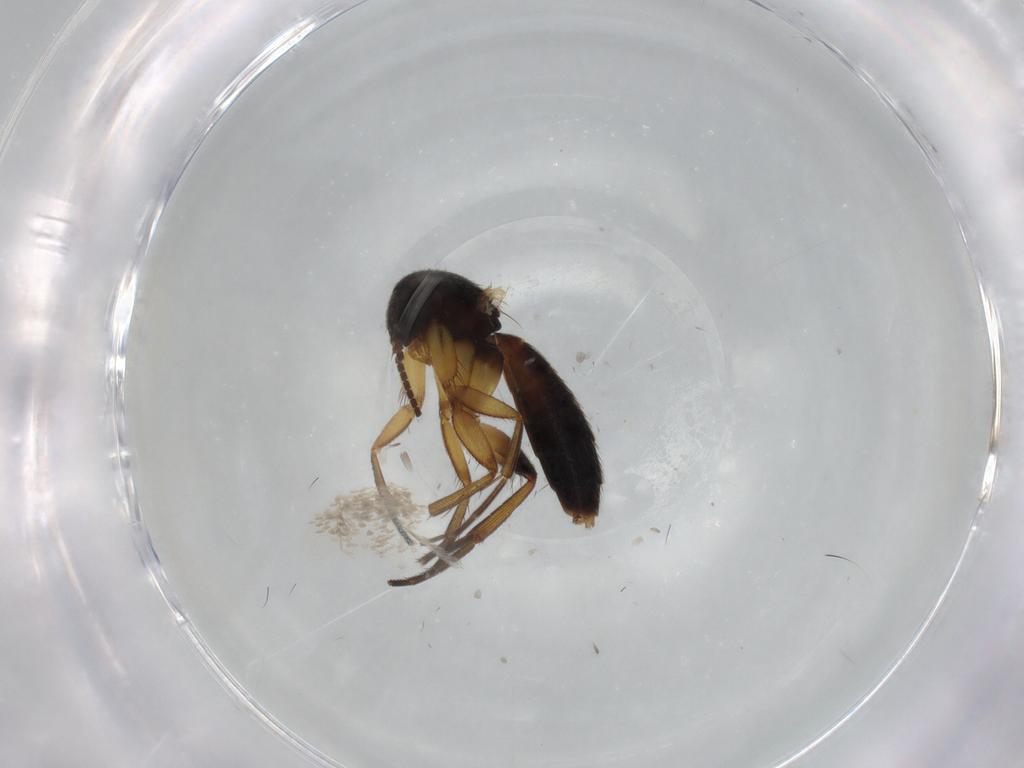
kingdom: Animalia
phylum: Arthropoda
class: Insecta
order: Diptera
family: Mycetophilidae
